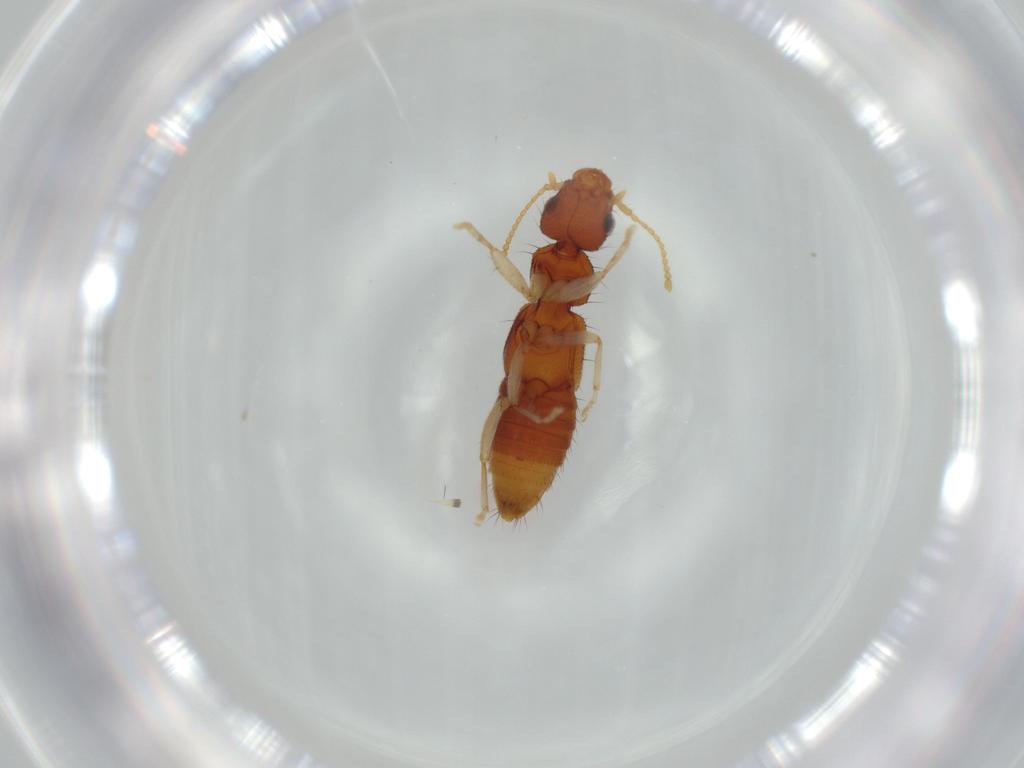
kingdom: Animalia
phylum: Arthropoda
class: Insecta
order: Coleoptera
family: Staphylinidae
